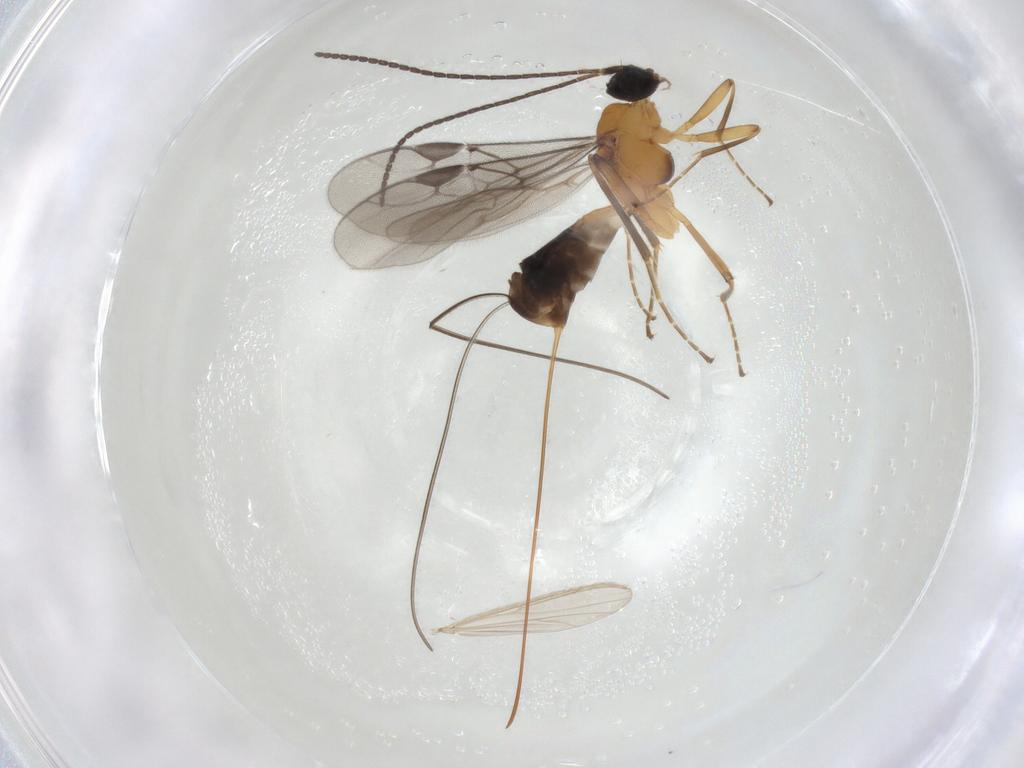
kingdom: Animalia
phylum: Arthropoda
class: Insecta
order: Hymenoptera
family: Braconidae
